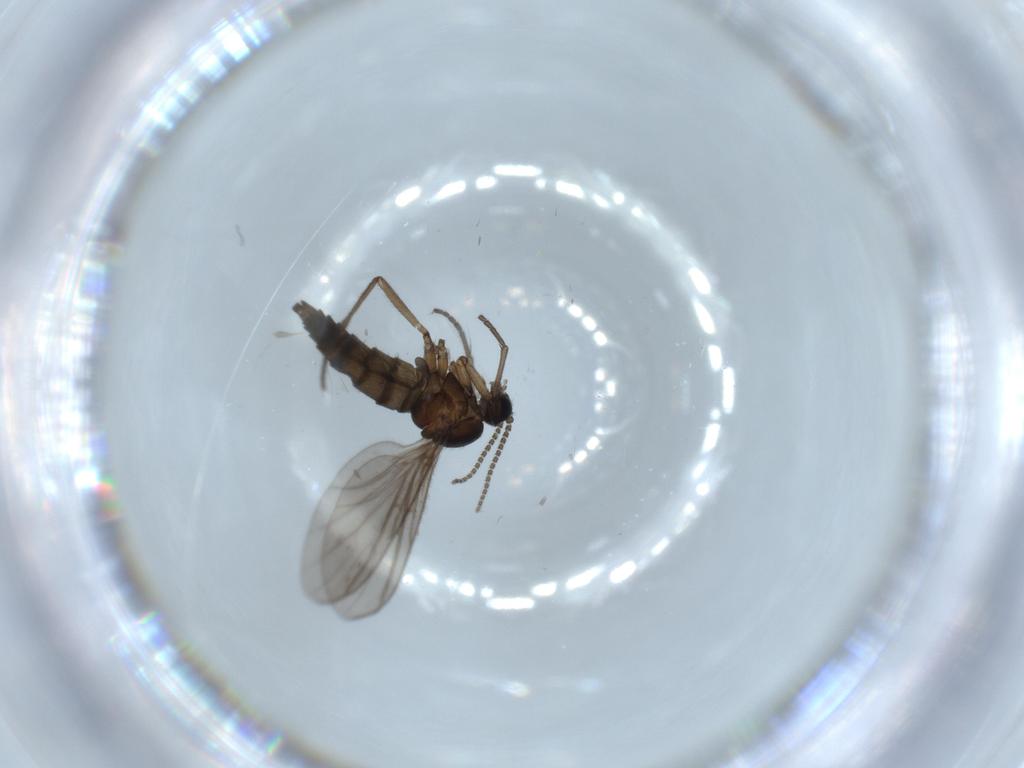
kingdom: Animalia
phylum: Arthropoda
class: Insecta
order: Diptera
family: Sciaridae
